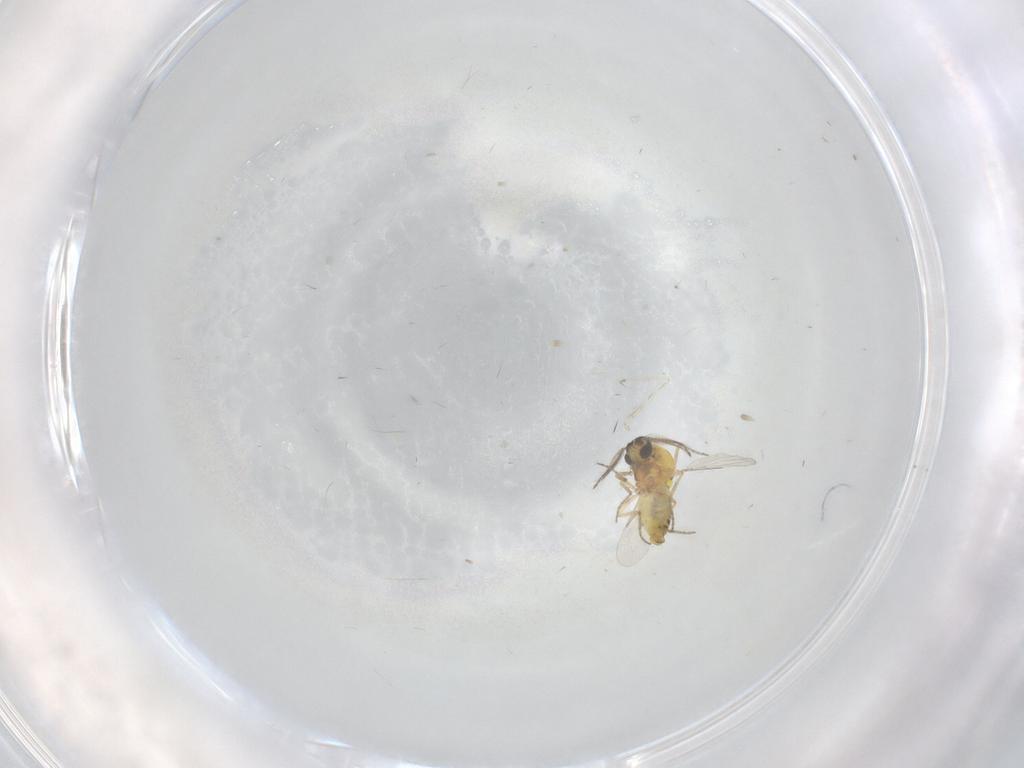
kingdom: Animalia
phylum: Arthropoda
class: Insecta
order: Diptera
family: Cecidomyiidae
